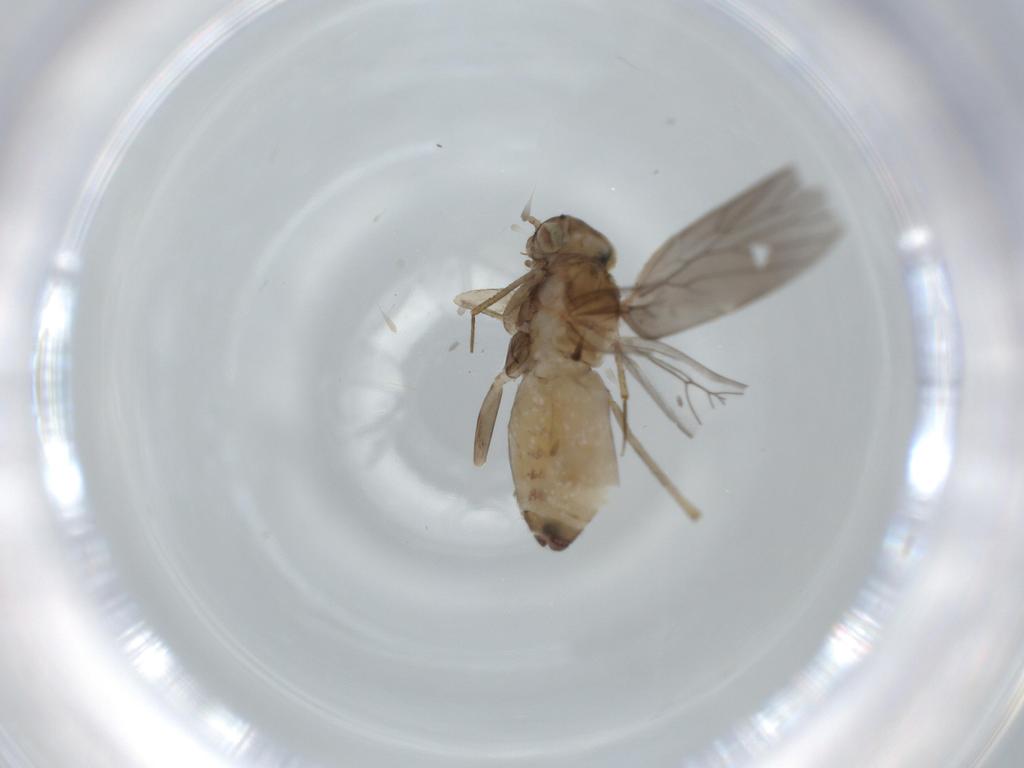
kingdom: Animalia
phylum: Arthropoda
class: Insecta
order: Psocodea
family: Lepidopsocidae
